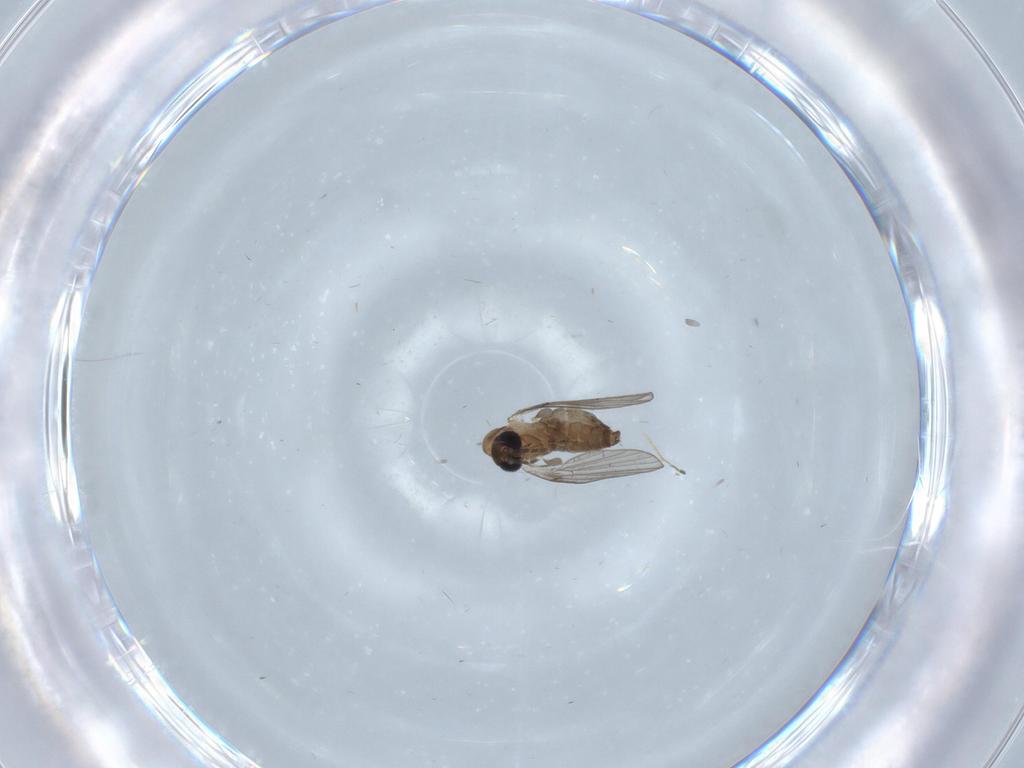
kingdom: Animalia
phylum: Arthropoda
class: Insecta
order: Diptera
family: Psychodidae
